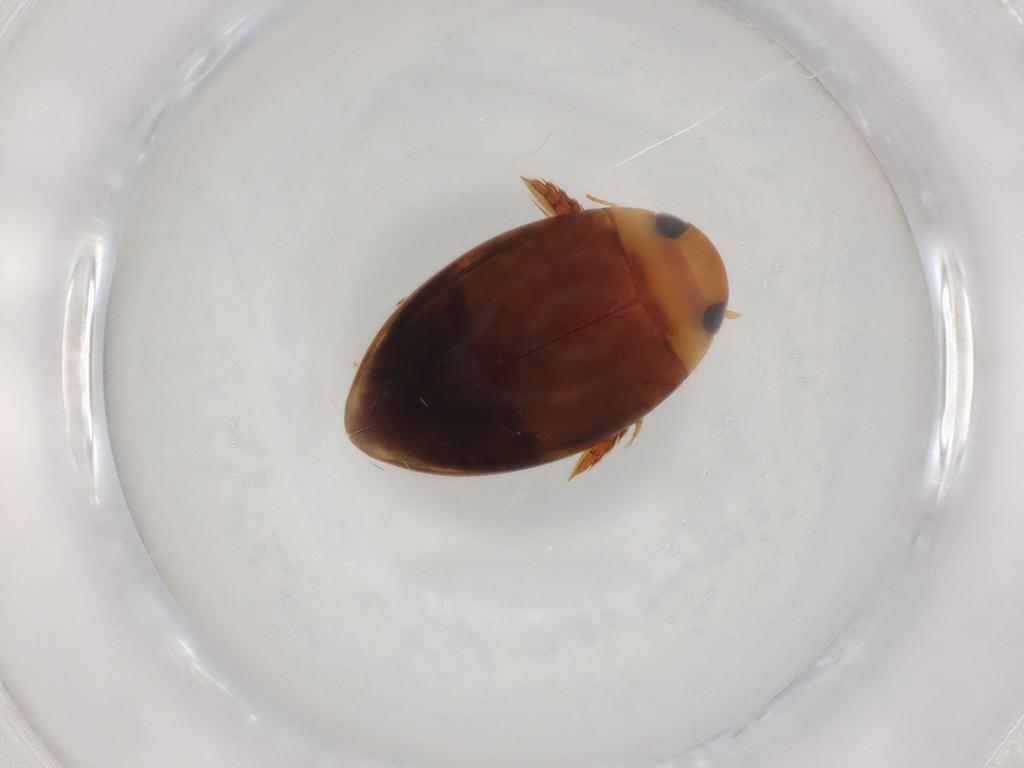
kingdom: Animalia
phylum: Arthropoda
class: Insecta
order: Coleoptera
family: Dytiscidae
